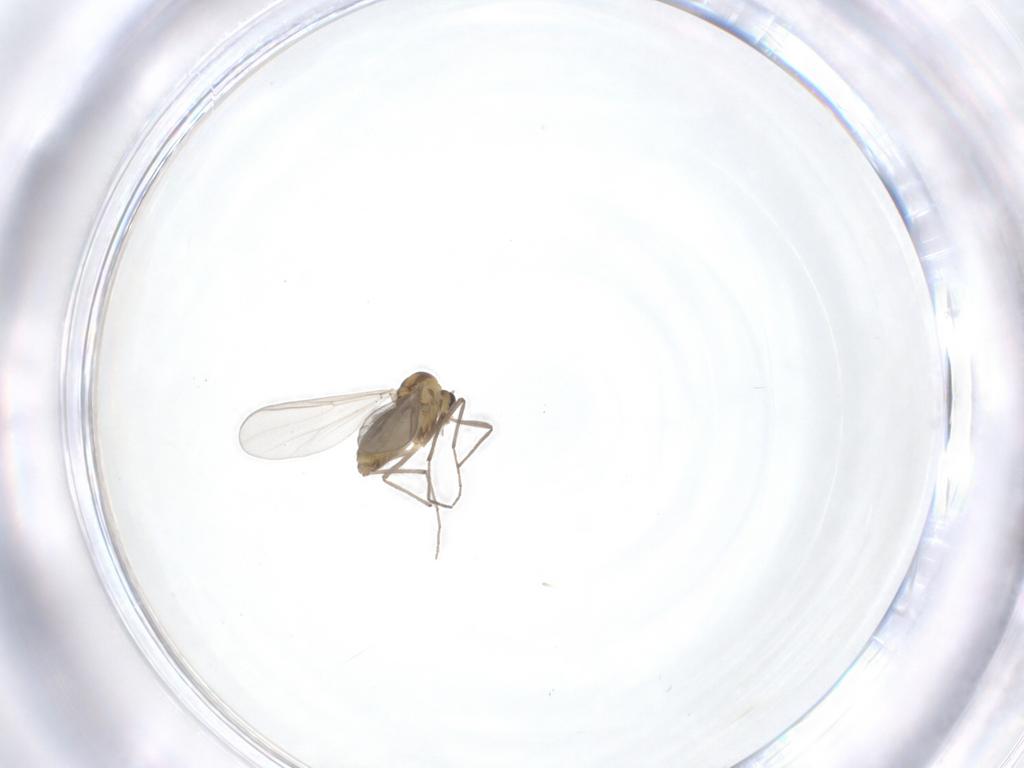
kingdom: Animalia
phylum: Arthropoda
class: Insecta
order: Diptera
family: Chironomidae
